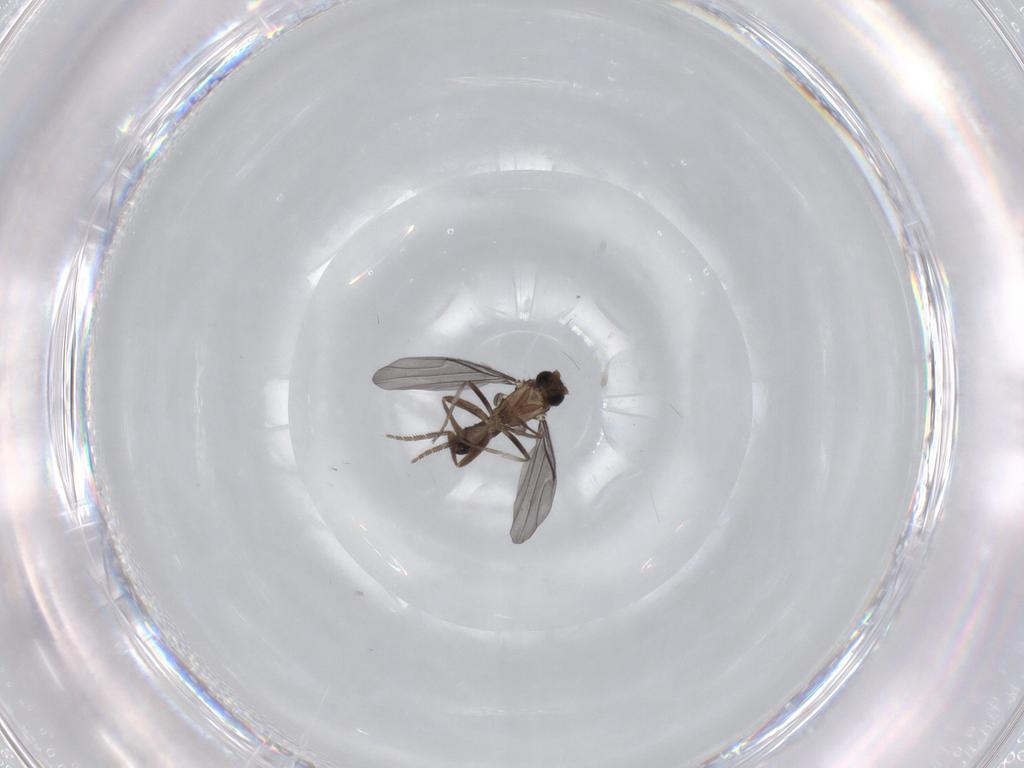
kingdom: Animalia
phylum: Arthropoda
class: Insecta
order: Diptera
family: Phoridae
